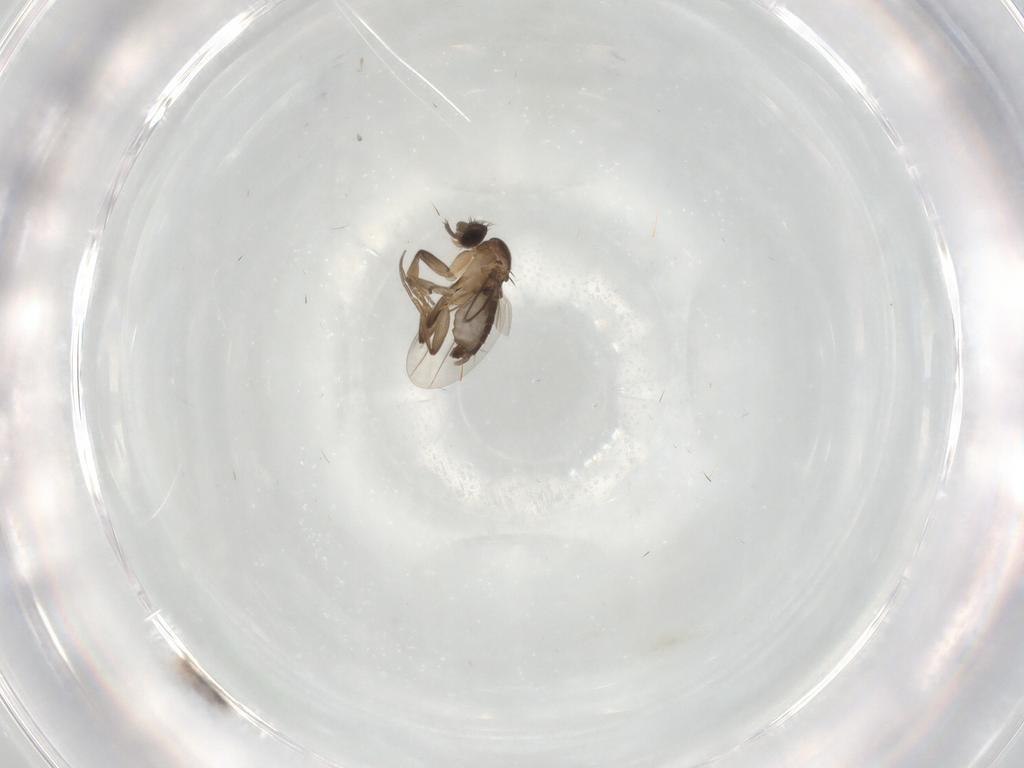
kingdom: Animalia
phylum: Arthropoda
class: Insecta
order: Diptera
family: Phoridae
